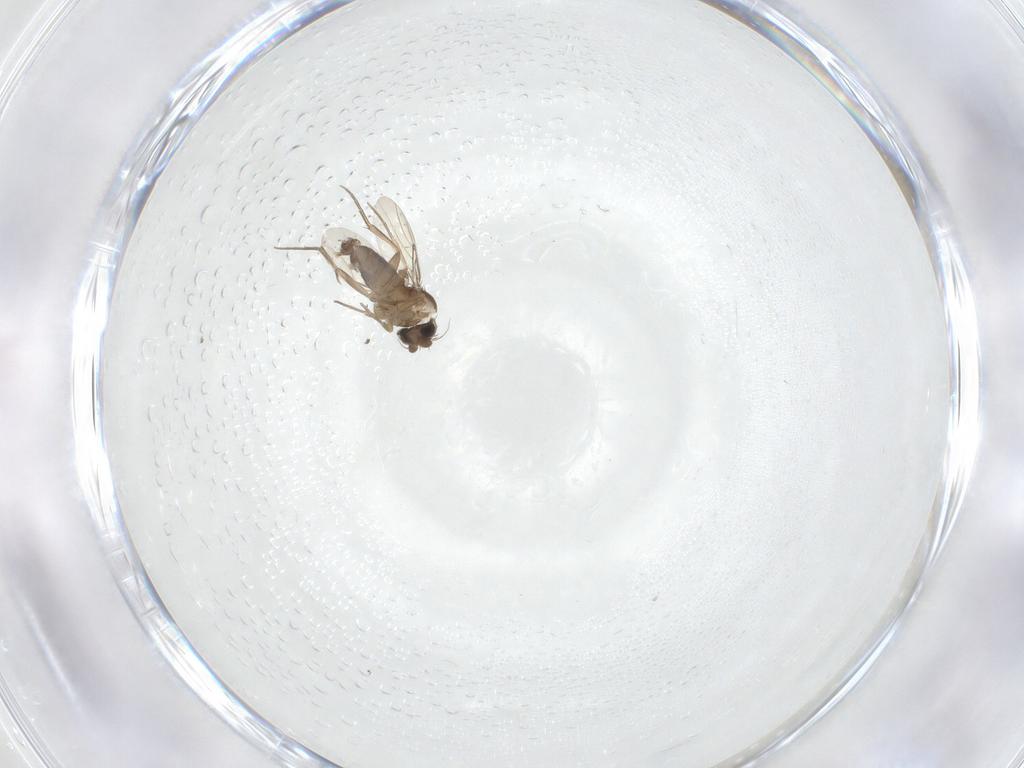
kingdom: Animalia
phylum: Arthropoda
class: Insecta
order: Diptera
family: Phoridae
